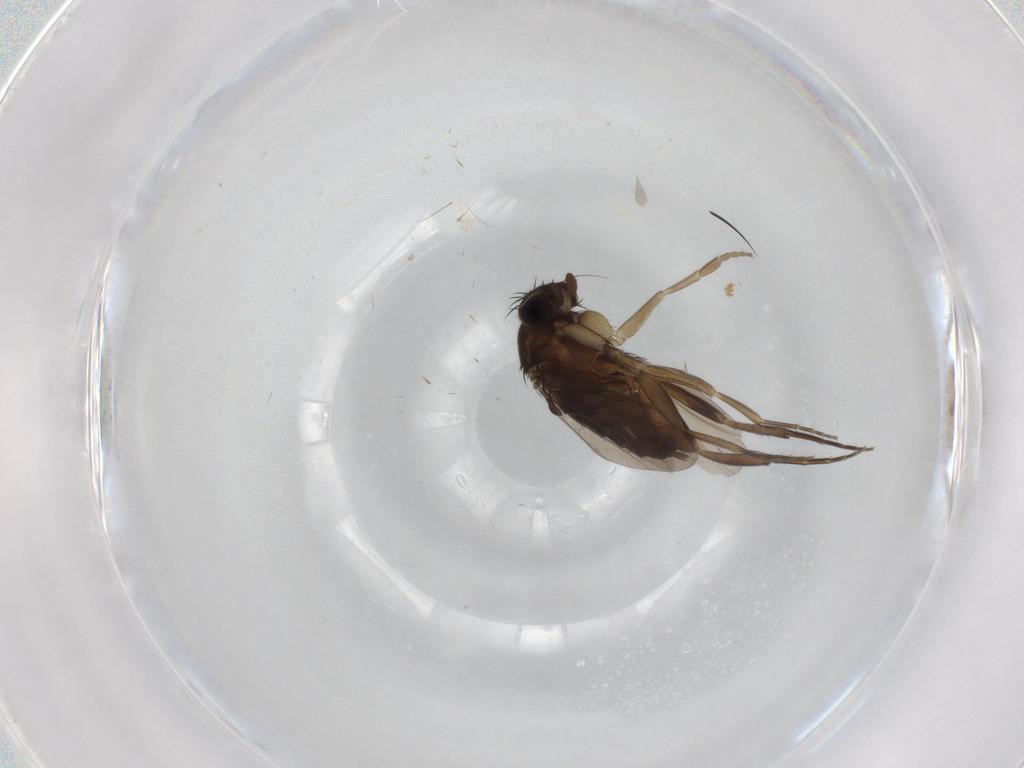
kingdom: Animalia
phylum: Arthropoda
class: Insecta
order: Diptera
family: Phoridae
